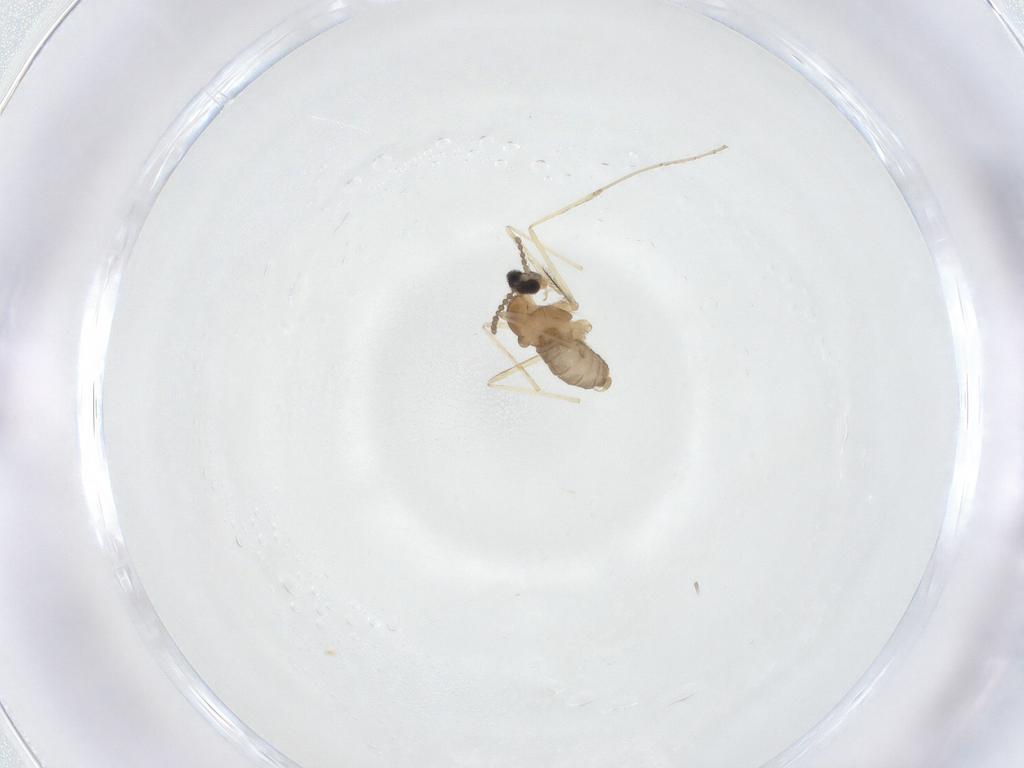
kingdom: Animalia
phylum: Arthropoda
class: Insecta
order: Diptera
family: Cecidomyiidae
